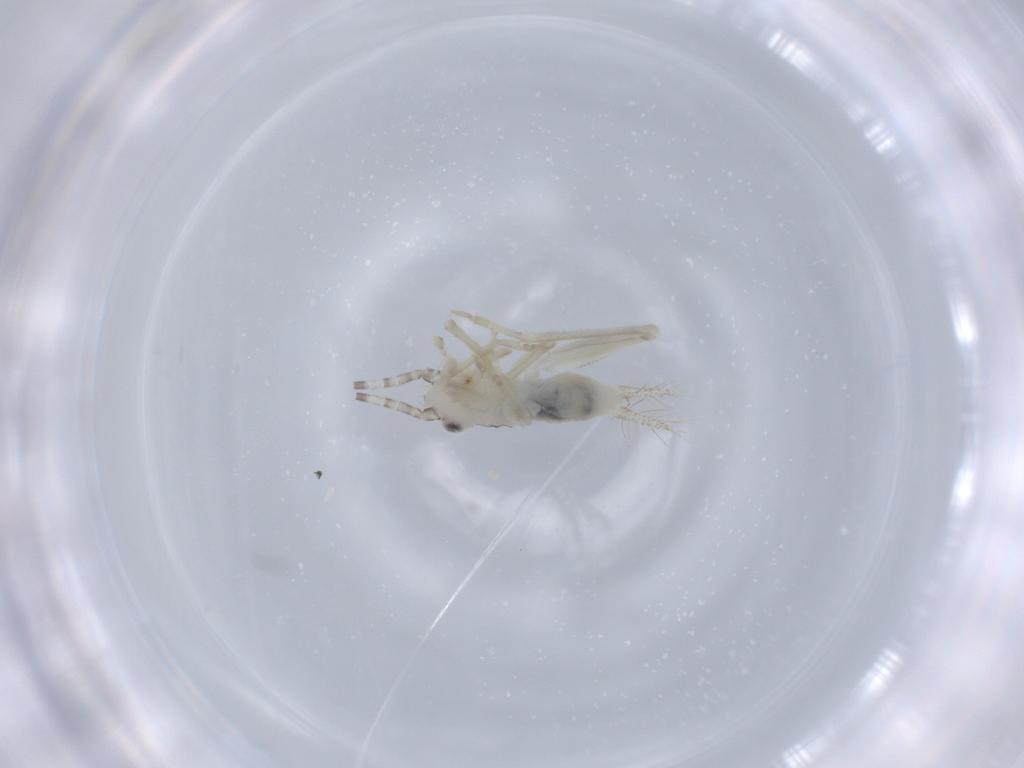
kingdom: Animalia
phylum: Arthropoda
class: Insecta
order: Orthoptera
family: Trigonidiidae
